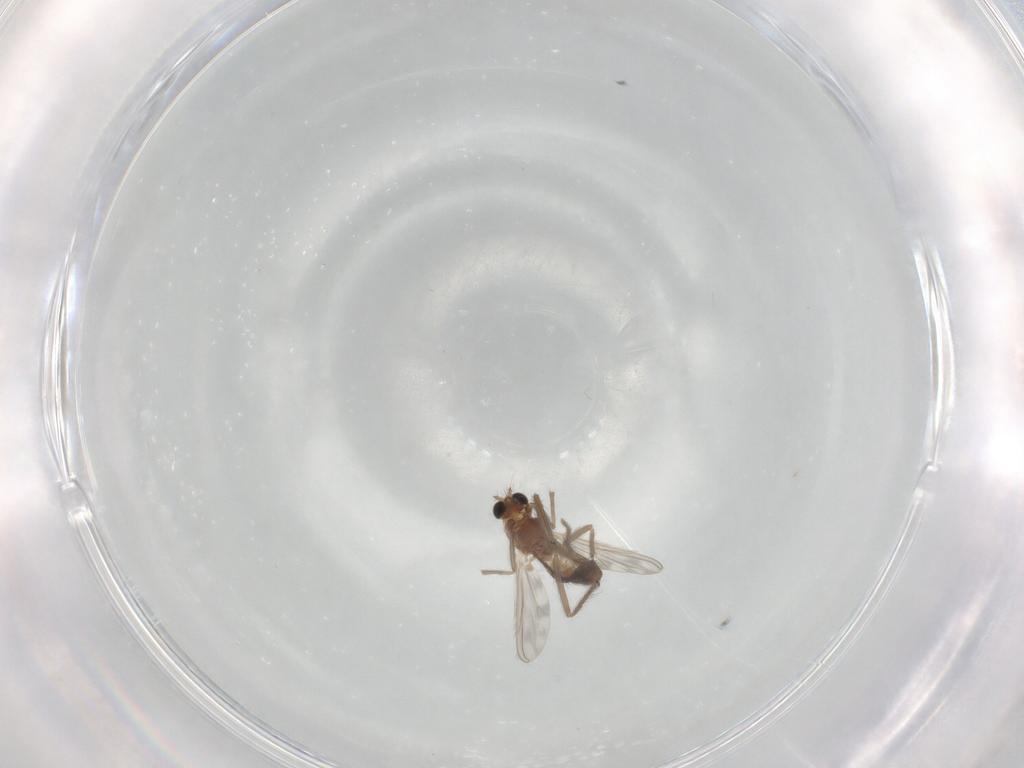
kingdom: Animalia
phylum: Arthropoda
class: Insecta
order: Diptera
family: Chironomidae
